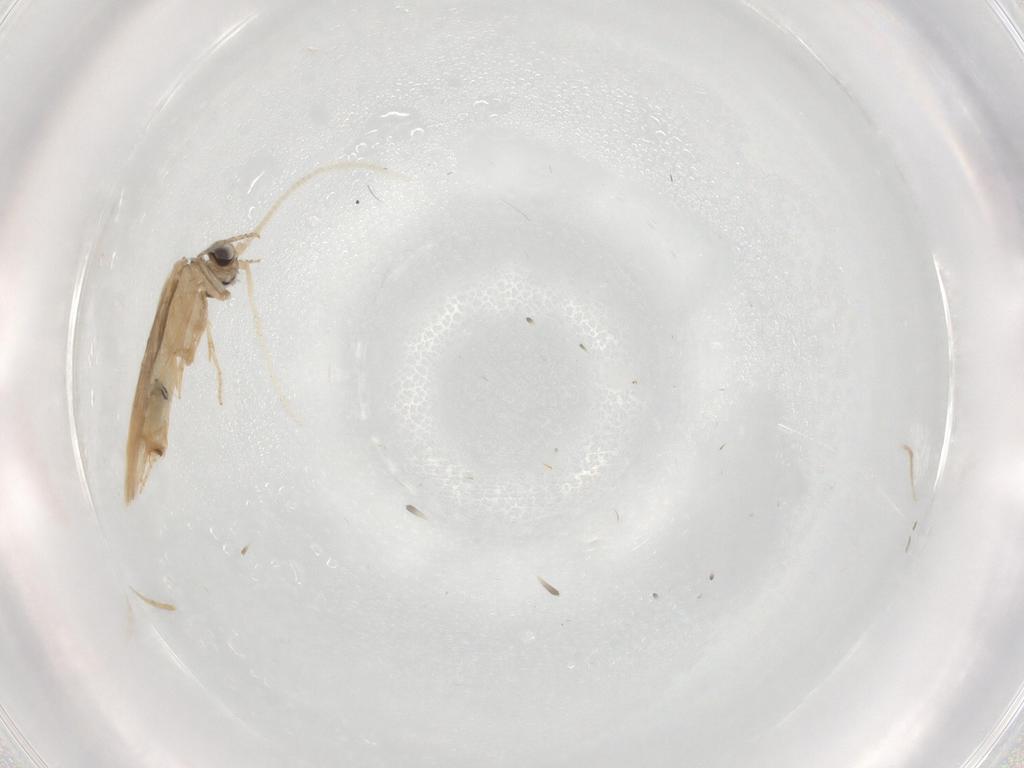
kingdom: Animalia
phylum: Arthropoda
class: Insecta
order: Trichoptera
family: Hydroptilidae
